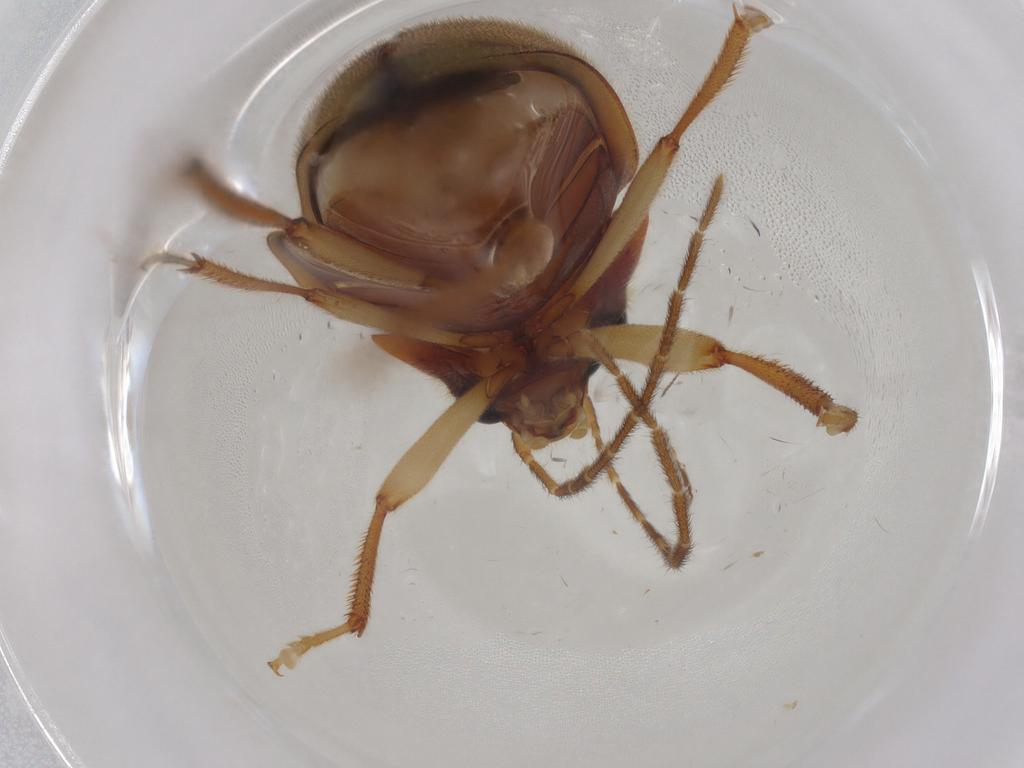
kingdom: Animalia
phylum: Arthropoda
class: Insecta
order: Coleoptera
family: Ptilodactylidae
